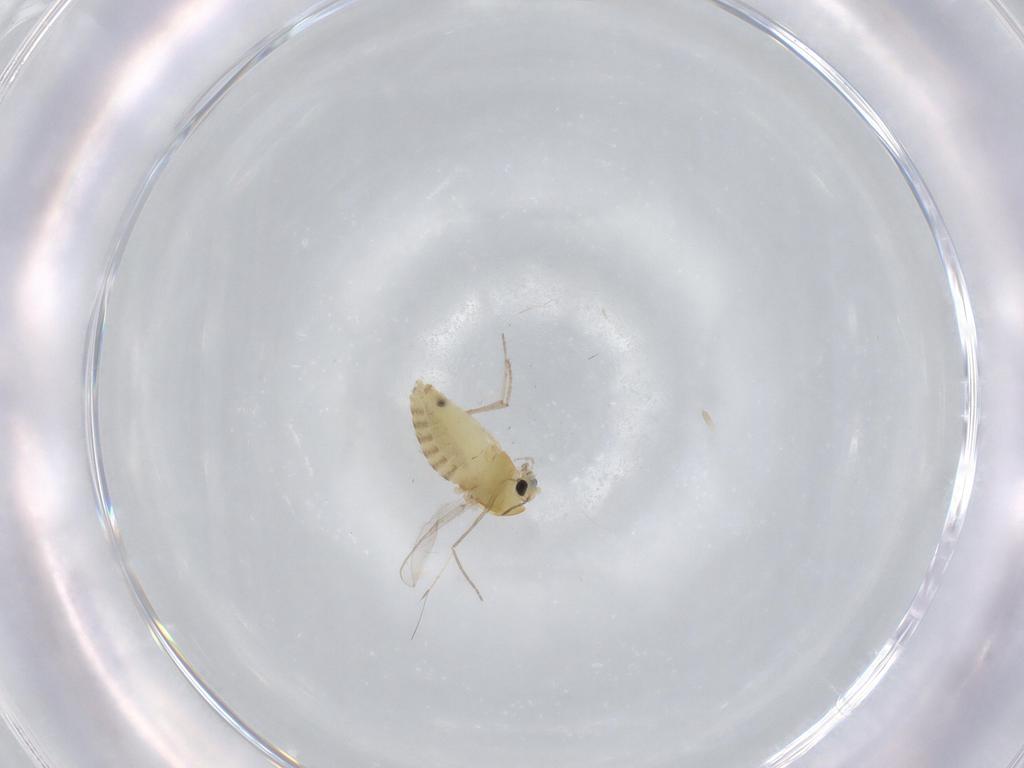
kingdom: Animalia
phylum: Arthropoda
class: Insecta
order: Diptera
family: Chironomidae
